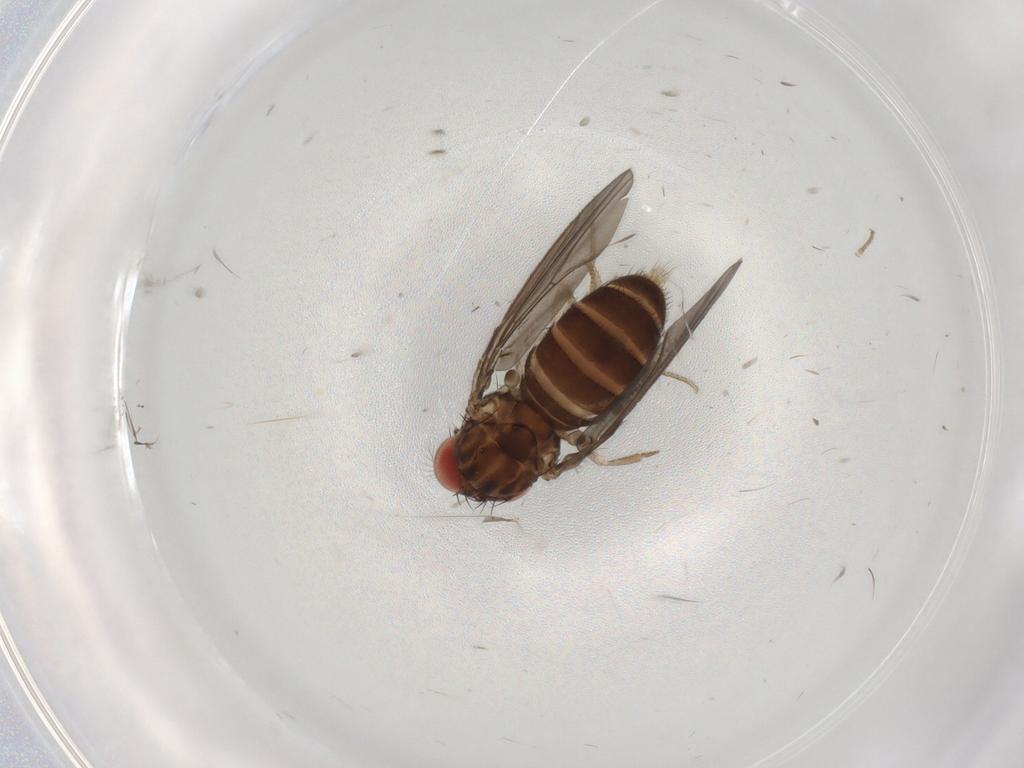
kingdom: Animalia
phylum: Arthropoda
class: Insecta
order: Diptera
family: Drosophilidae
